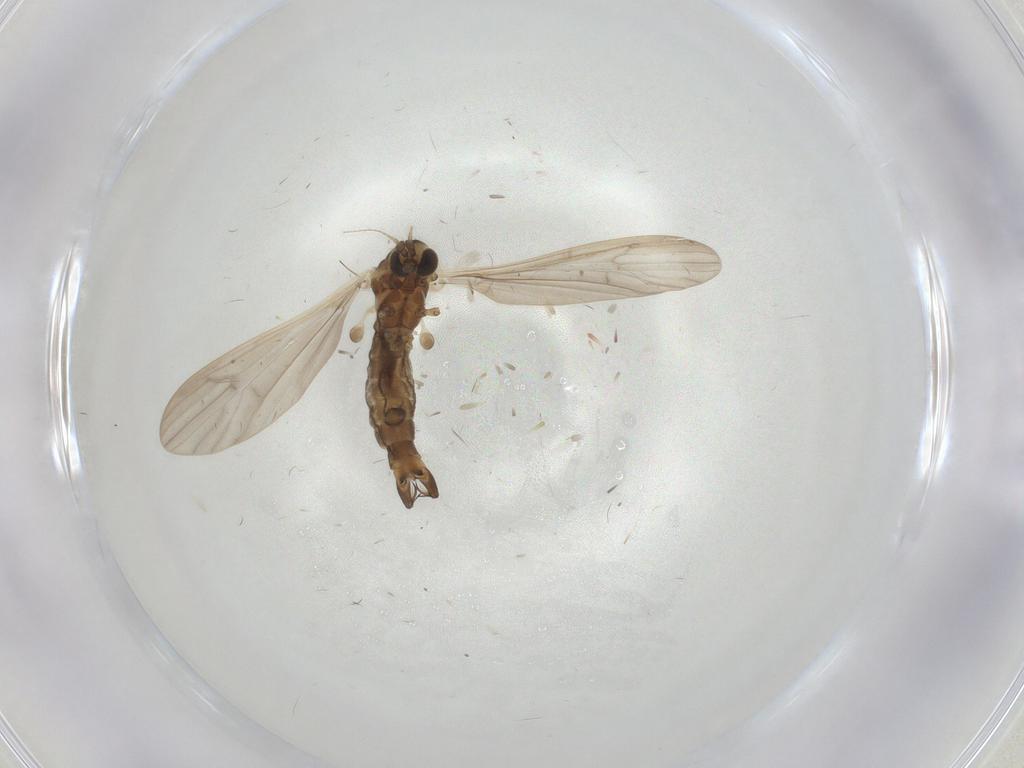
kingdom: Animalia
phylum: Arthropoda
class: Insecta
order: Diptera
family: Limoniidae
